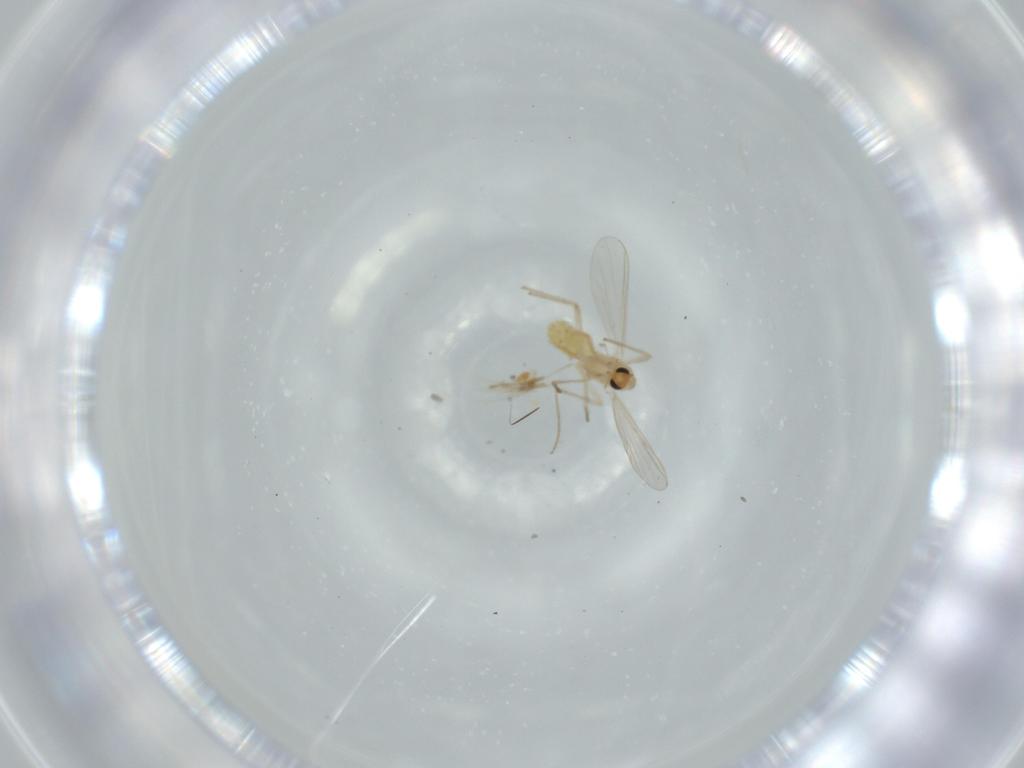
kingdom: Animalia
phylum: Arthropoda
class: Insecta
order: Diptera
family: Chironomidae
